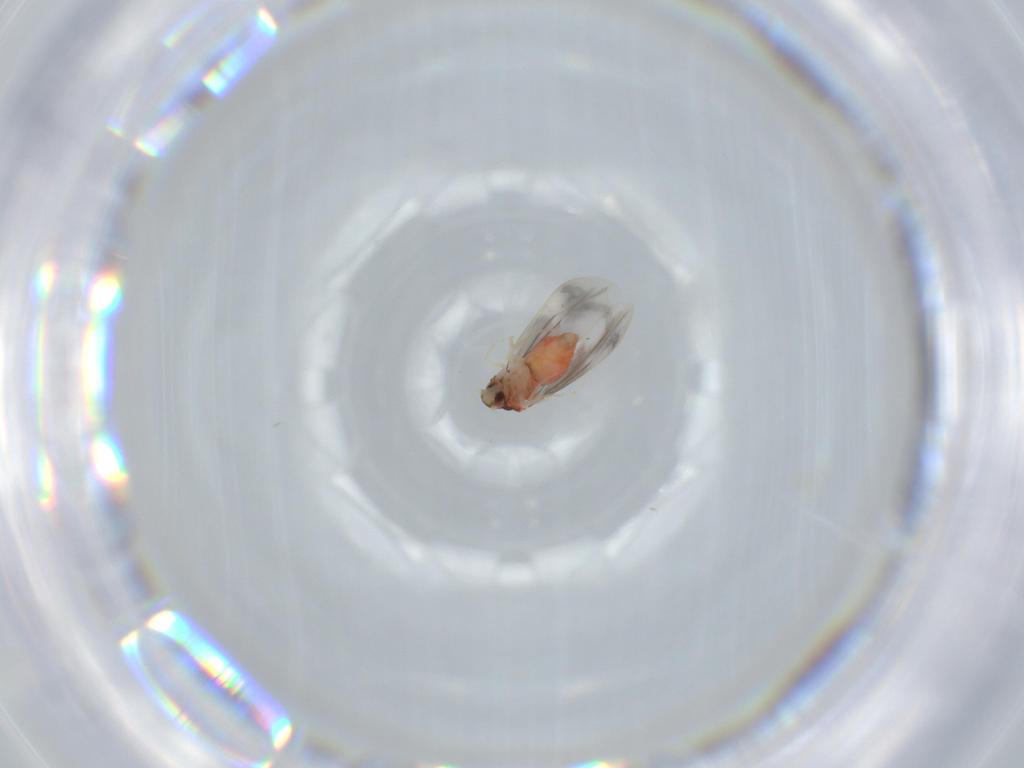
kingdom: Animalia
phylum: Arthropoda
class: Insecta
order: Hemiptera
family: Aleyrodidae
